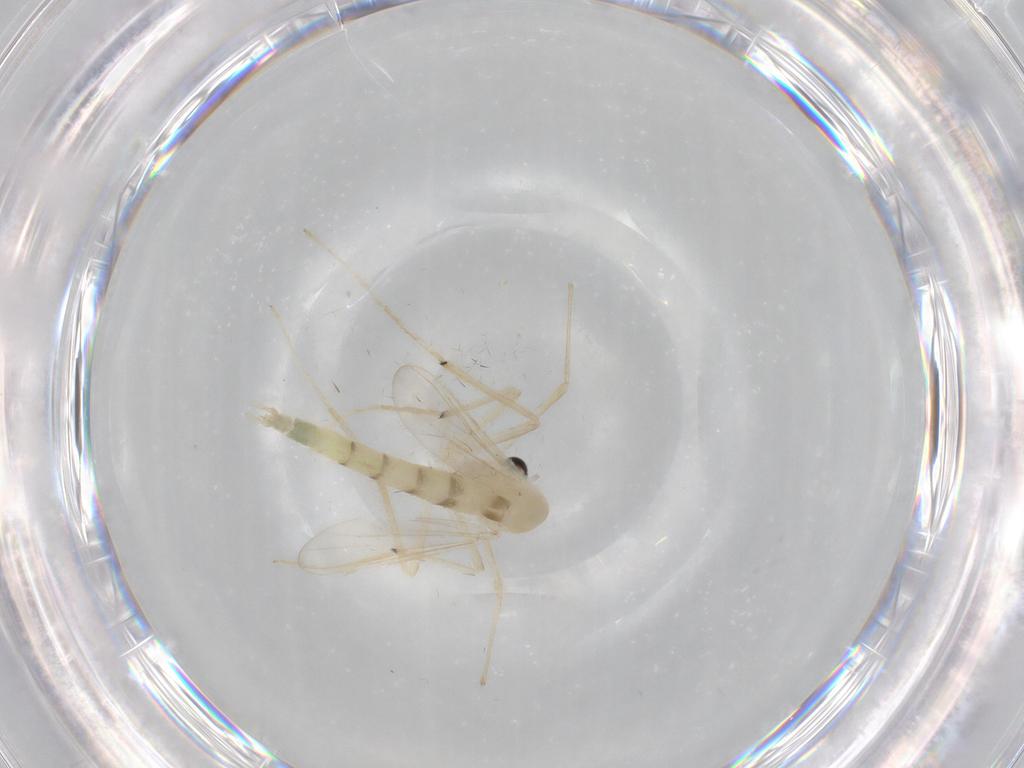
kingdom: Animalia
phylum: Arthropoda
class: Insecta
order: Diptera
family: Chironomidae
